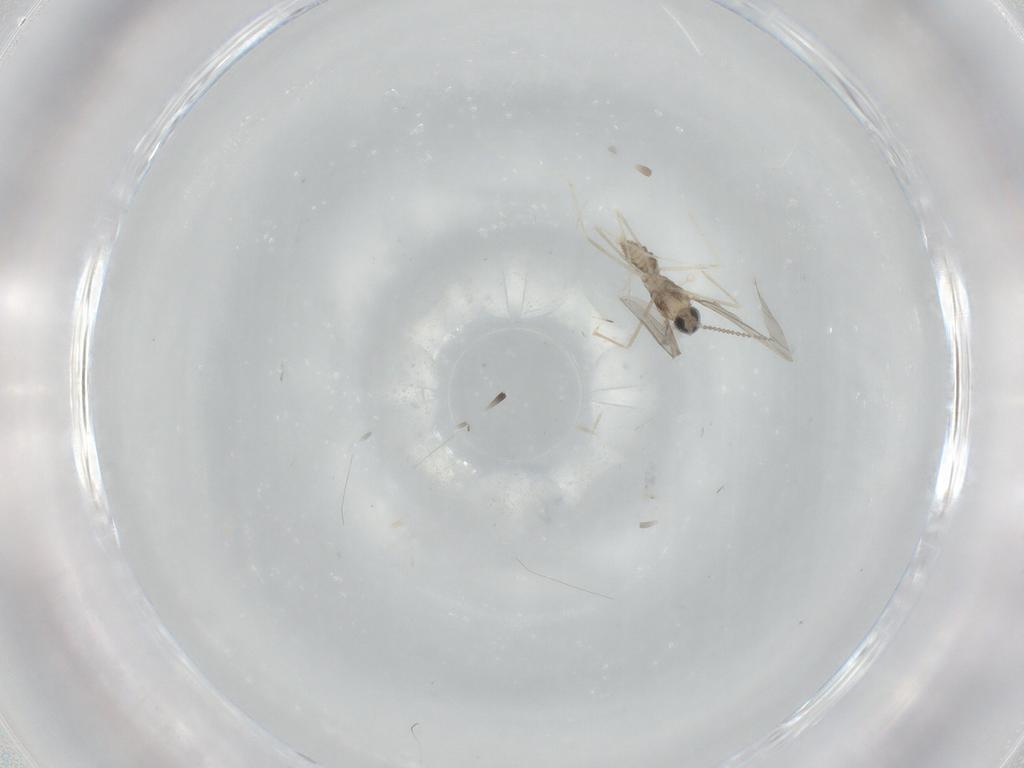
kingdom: Animalia
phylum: Arthropoda
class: Insecta
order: Diptera
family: Cecidomyiidae
